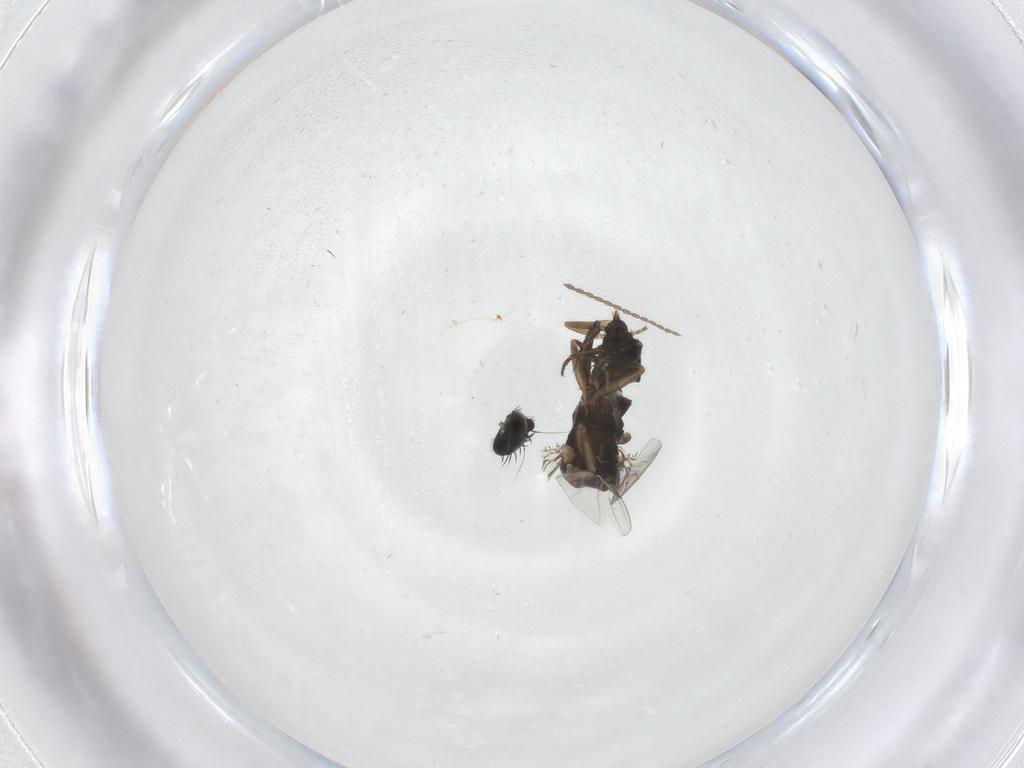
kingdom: Animalia
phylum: Arthropoda
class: Insecta
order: Diptera
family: Phoridae
